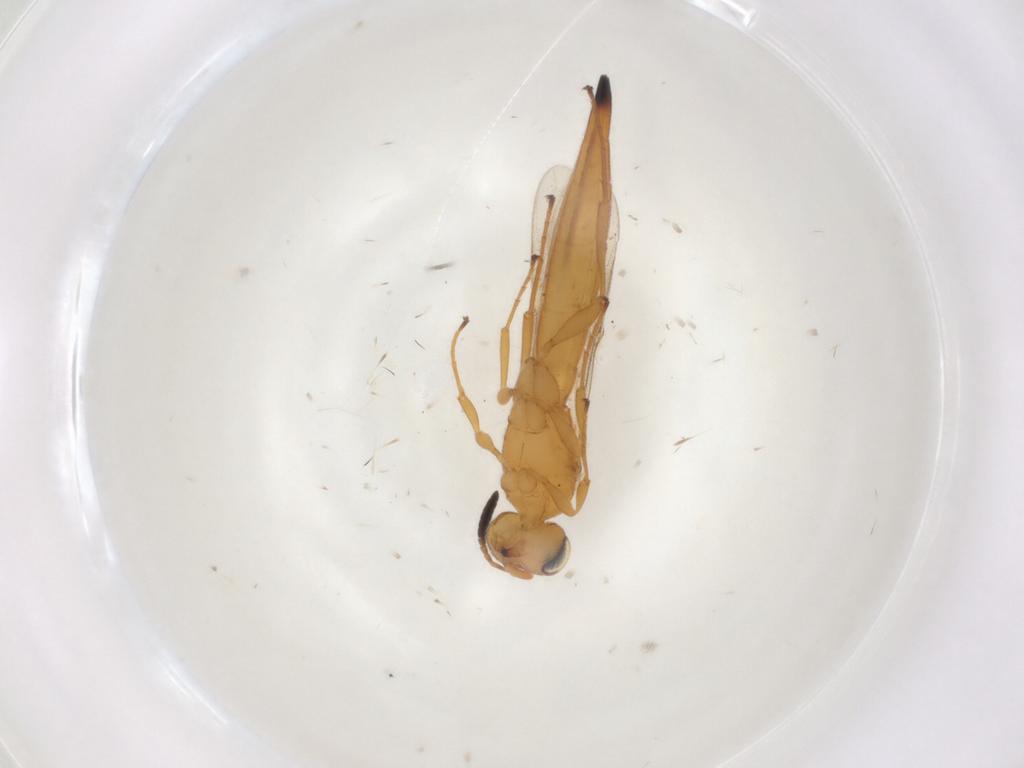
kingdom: Animalia
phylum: Arthropoda
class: Insecta
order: Hymenoptera
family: Scelionidae
